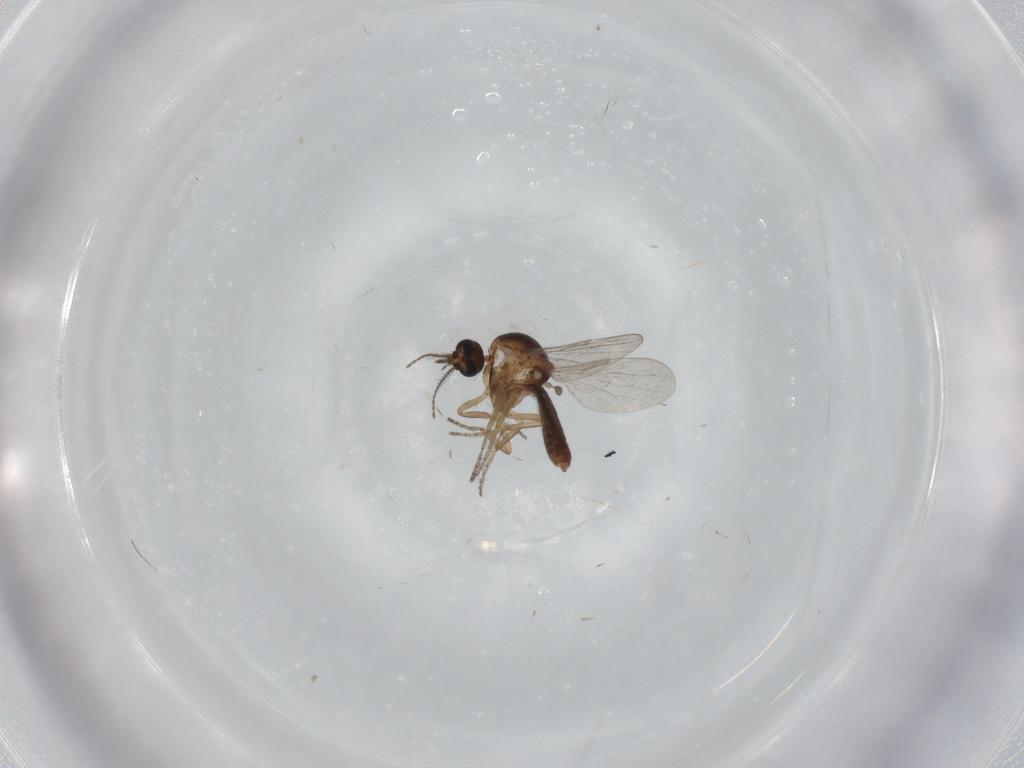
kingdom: Animalia
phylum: Arthropoda
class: Insecta
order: Diptera
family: Ceratopogonidae
